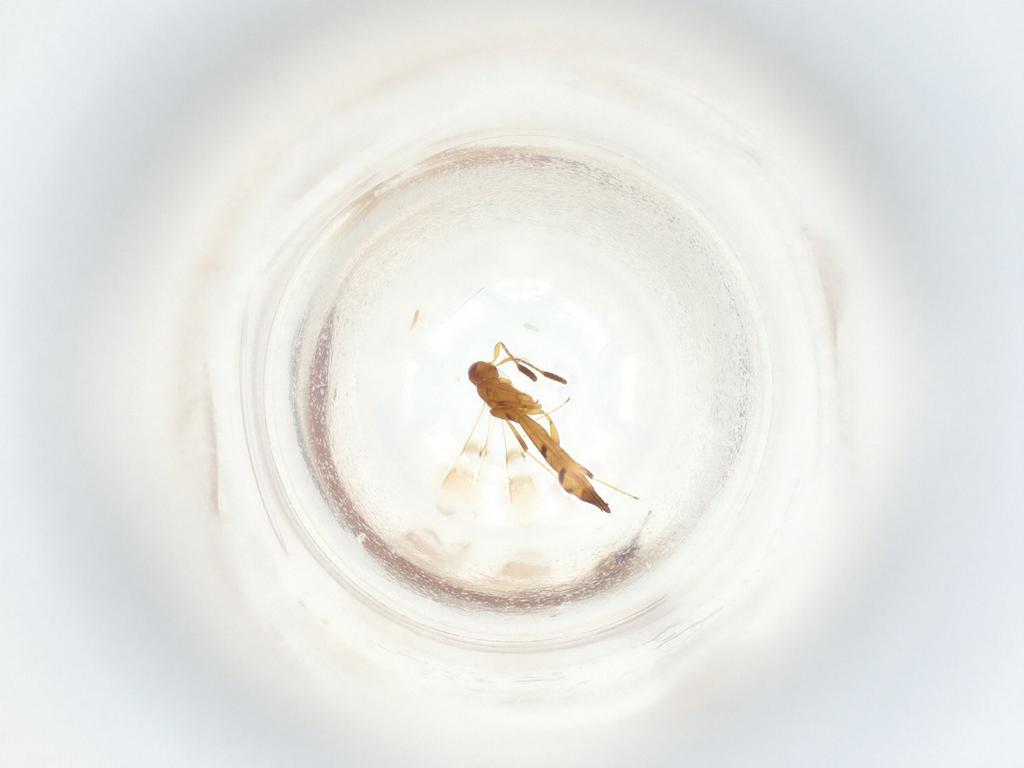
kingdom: Animalia
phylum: Arthropoda
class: Insecta
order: Hymenoptera
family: Scelionidae
